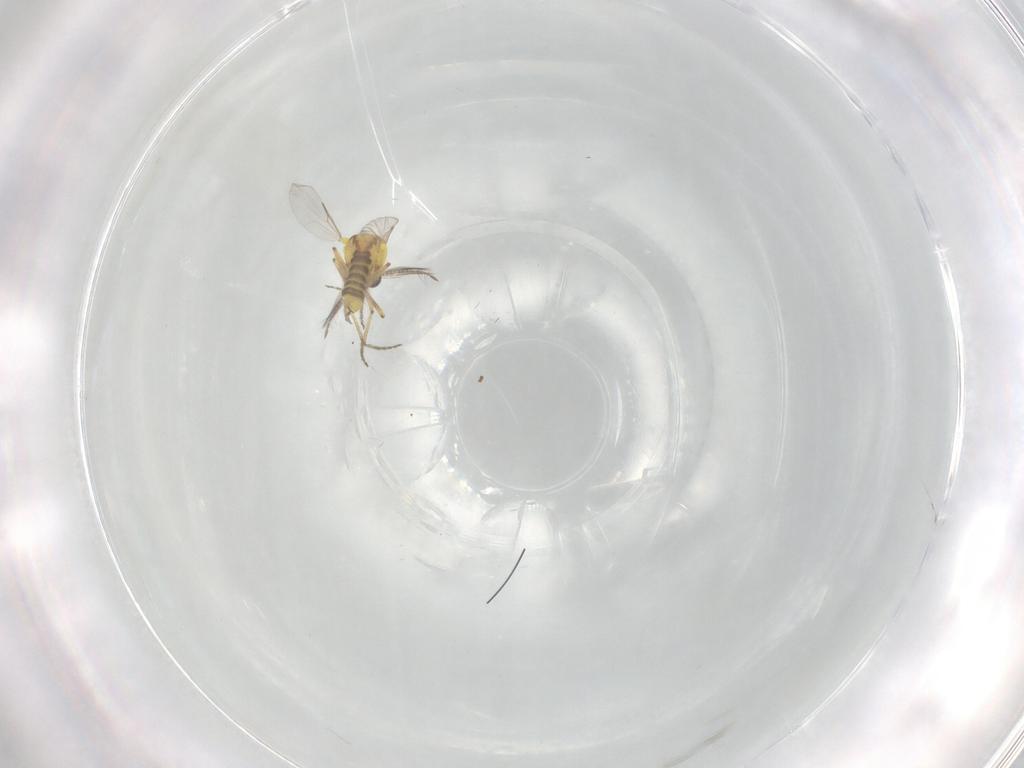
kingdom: Animalia
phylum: Arthropoda
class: Insecta
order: Diptera
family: Ceratopogonidae
